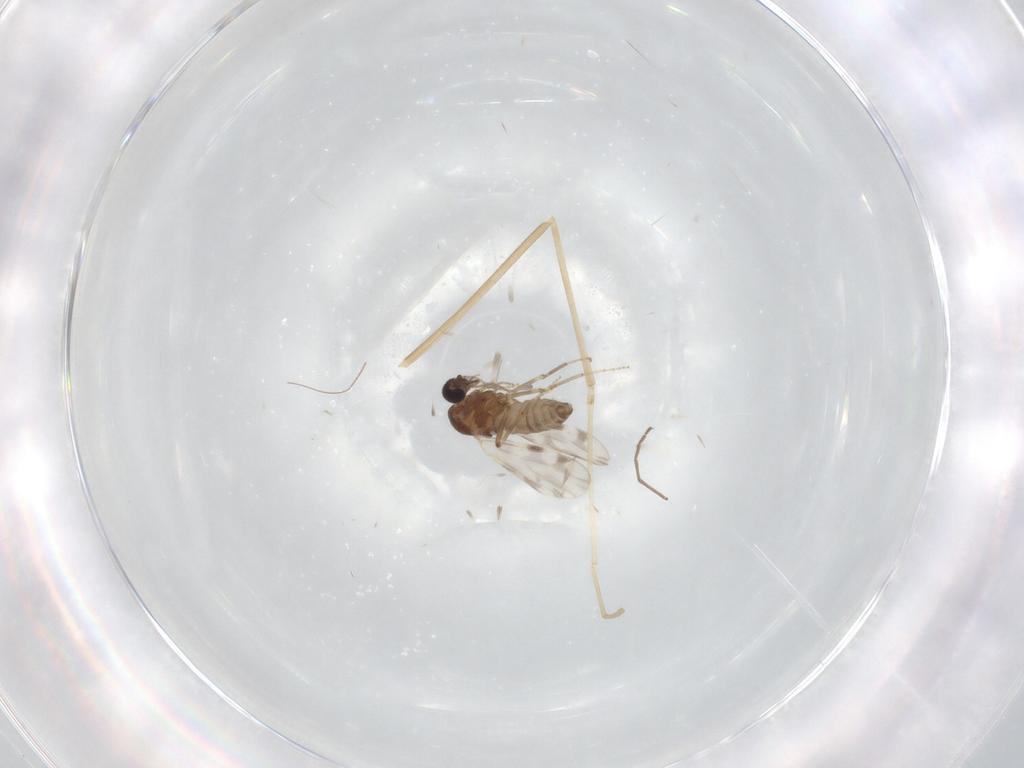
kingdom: Animalia
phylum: Arthropoda
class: Insecta
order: Diptera
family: Cecidomyiidae
